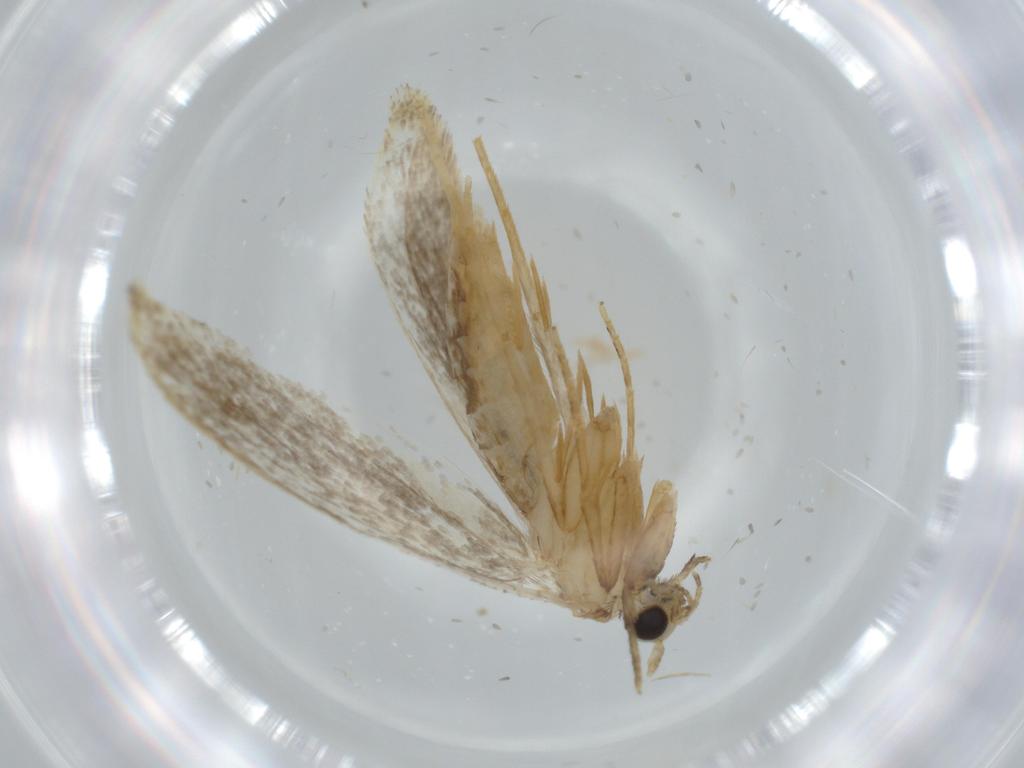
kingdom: Animalia
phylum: Arthropoda
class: Insecta
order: Lepidoptera
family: Tineidae
